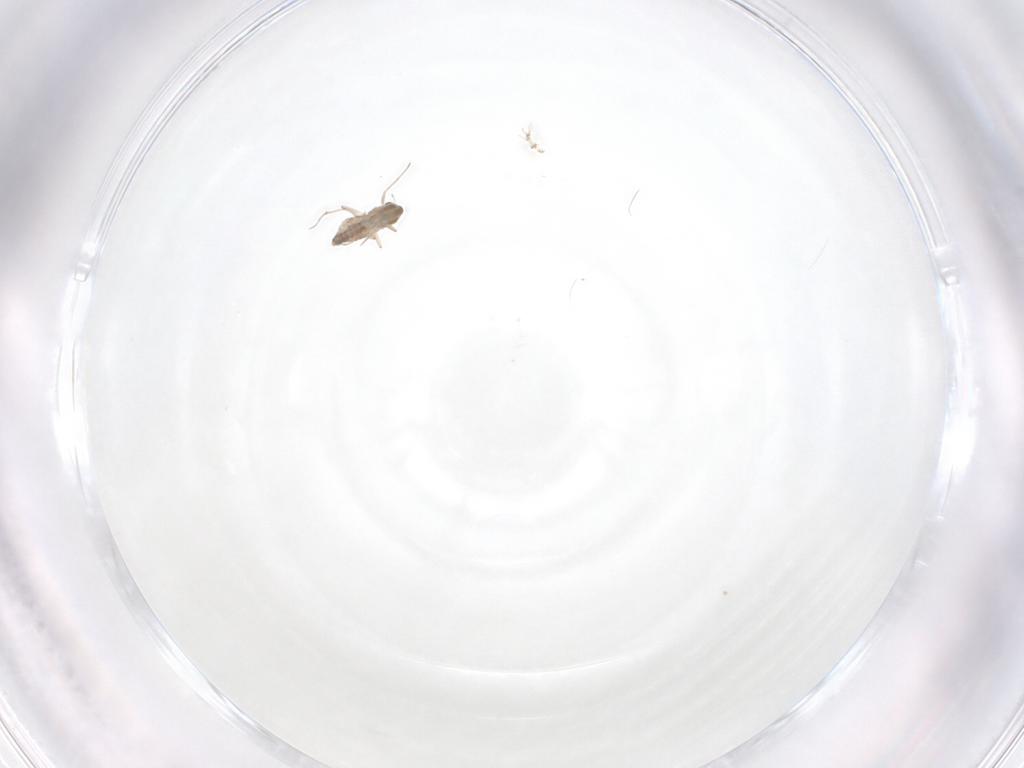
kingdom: Animalia
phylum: Arthropoda
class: Insecta
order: Diptera
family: Chironomidae
